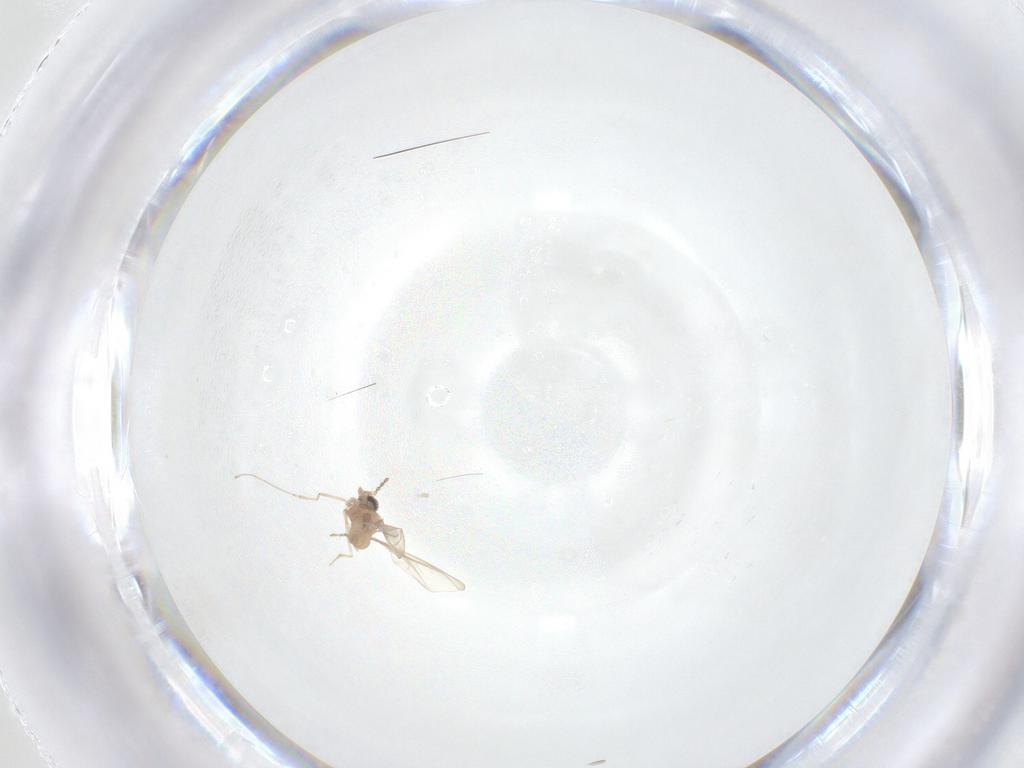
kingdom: Animalia
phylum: Arthropoda
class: Insecta
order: Diptera
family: Cecidomyiidae
